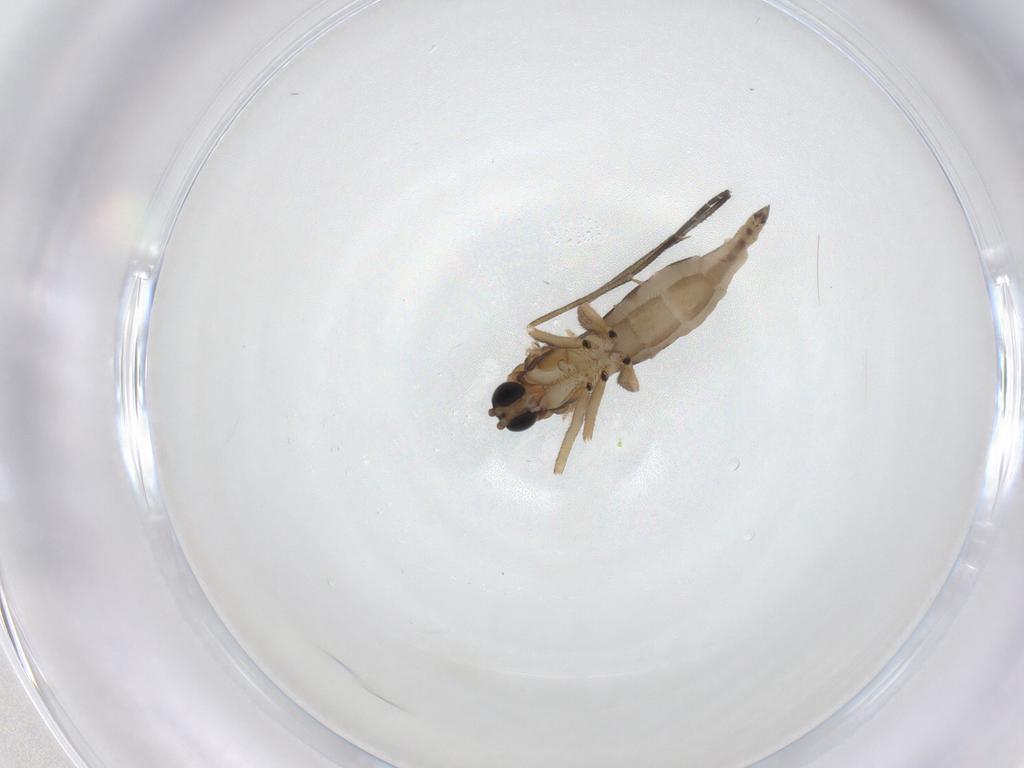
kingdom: Animalia
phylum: Arthropoda
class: Insecta
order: Diptera
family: Sciaridae
